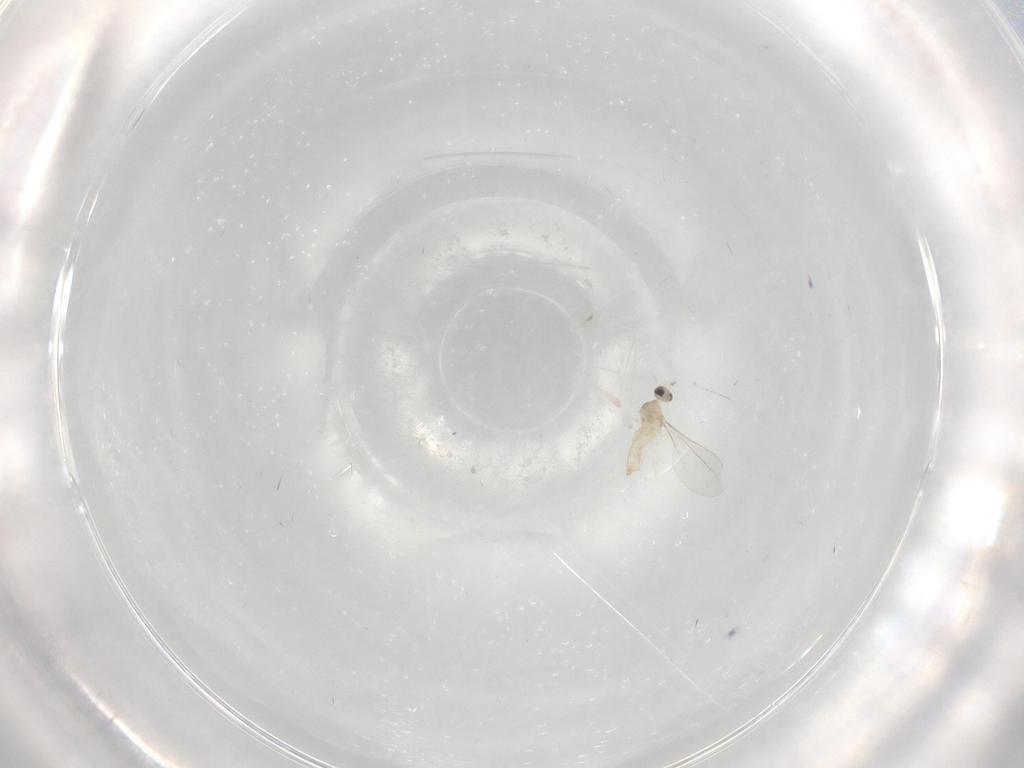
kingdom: Animalia
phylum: Arthropoda
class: Insecta
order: Diptera
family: Cecidomyiidae
